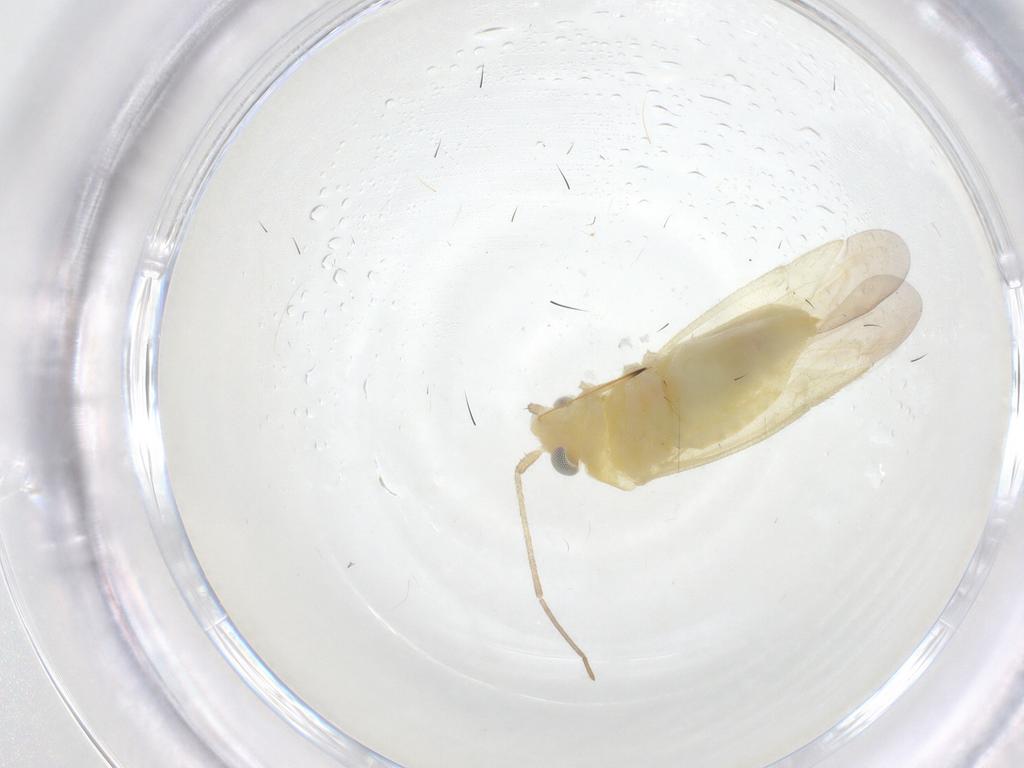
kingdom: Animalia
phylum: Arthropoda
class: Insecta
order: Hemiptera
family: Miridae
